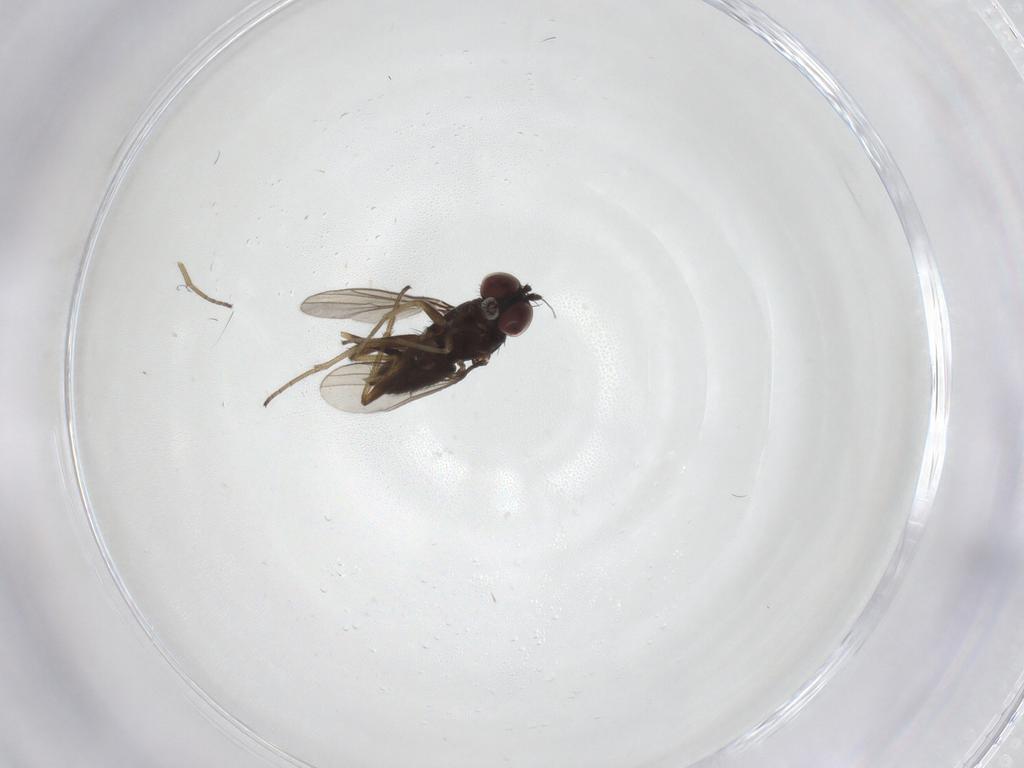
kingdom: Animalia
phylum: Arthropoda
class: Insecta
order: Diptera
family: Dolichopodidae
